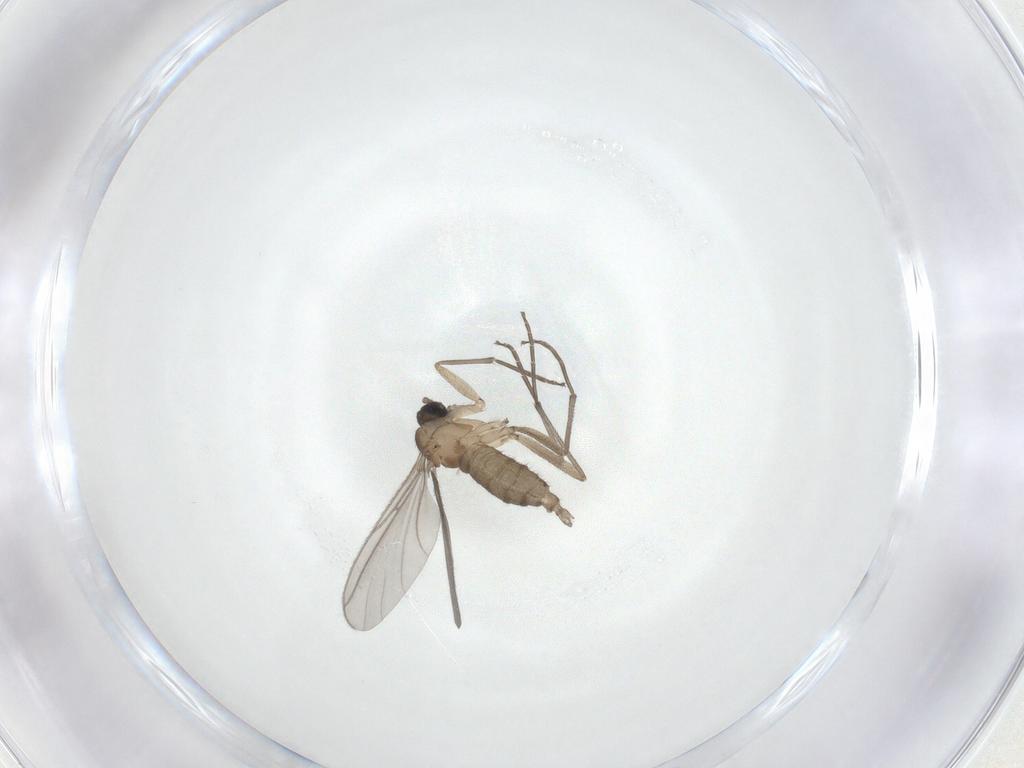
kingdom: Animalia
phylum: Arthropoda
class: Insecta
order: Diptera
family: Sciaridae
